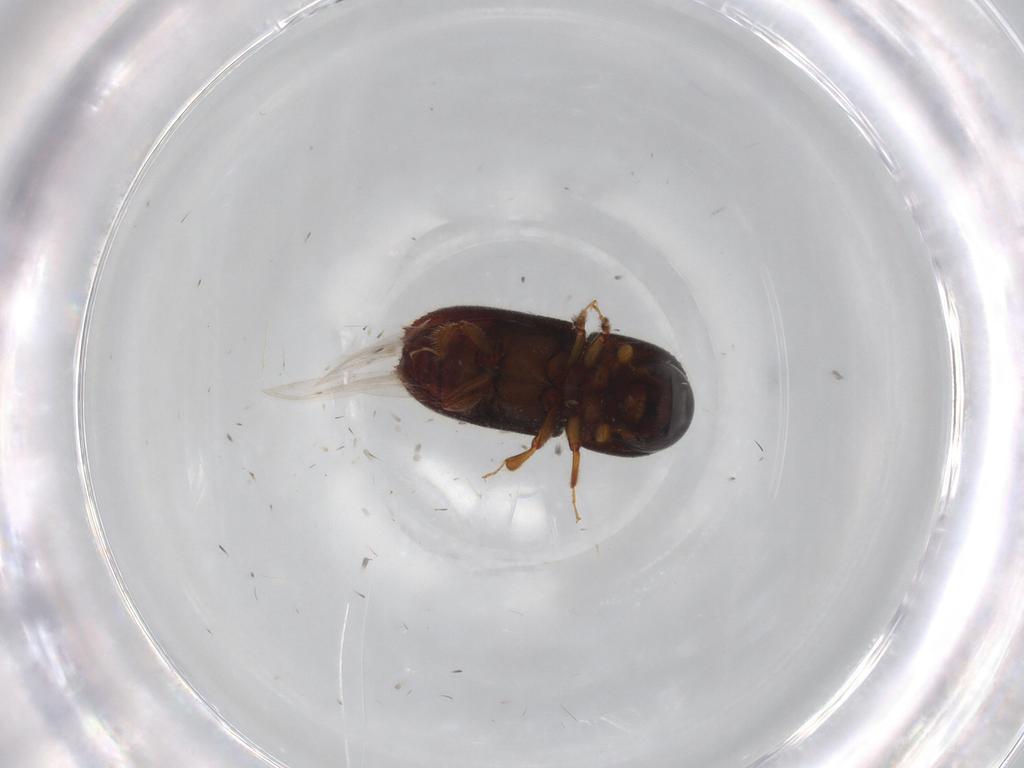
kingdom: Animalia
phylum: Arthropoda
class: Insecta
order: Coleoptera
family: Curculionidae
